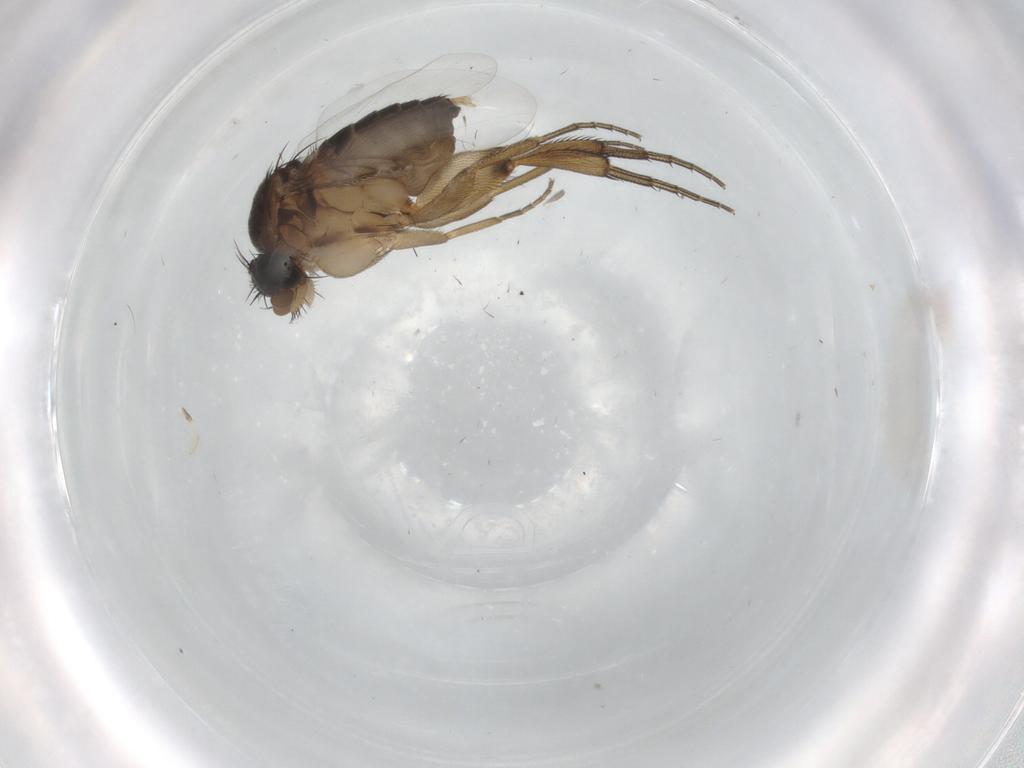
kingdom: Animalia
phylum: Arthropoda
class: Insecta
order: Diptera
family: Phoridae
